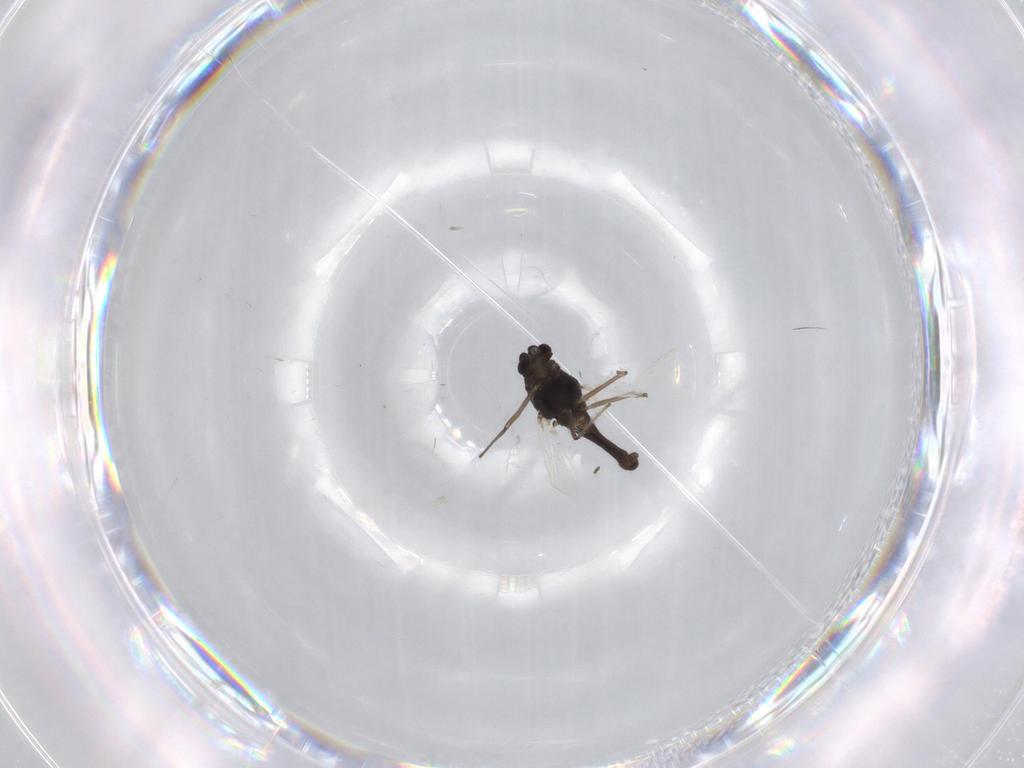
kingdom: Animalia
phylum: Arthropoda
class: Insecta
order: Diptera
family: Chironomidae
